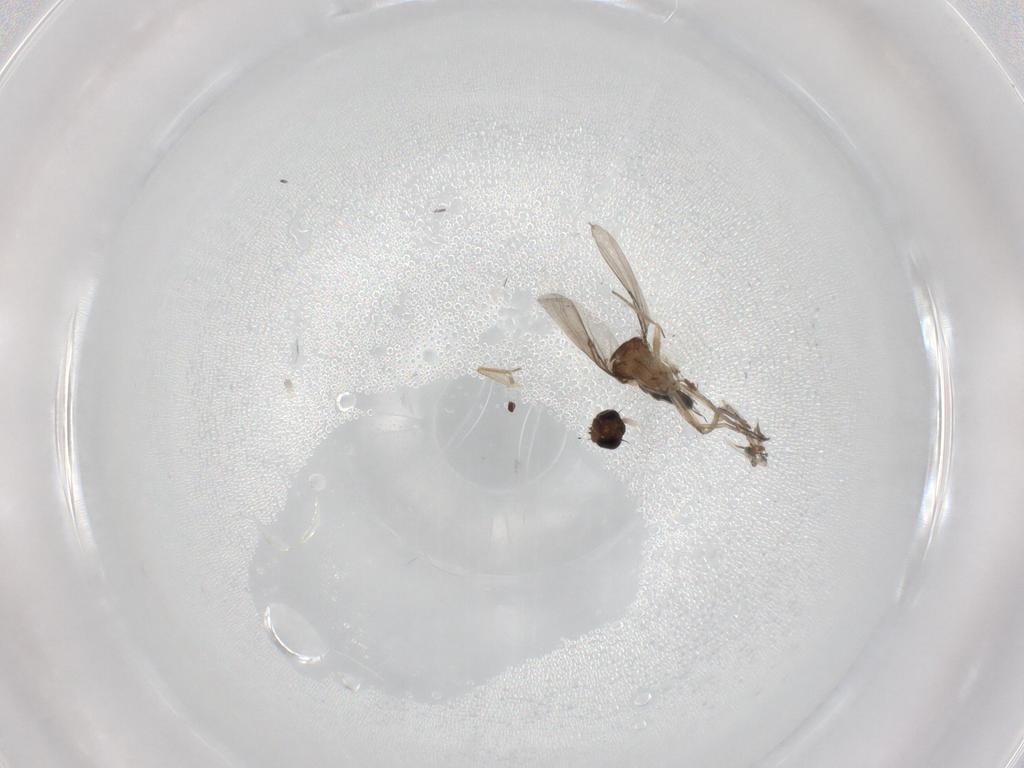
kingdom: Animalia
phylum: Arthropoda
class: Insecta
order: Diptera
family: Phoridae
